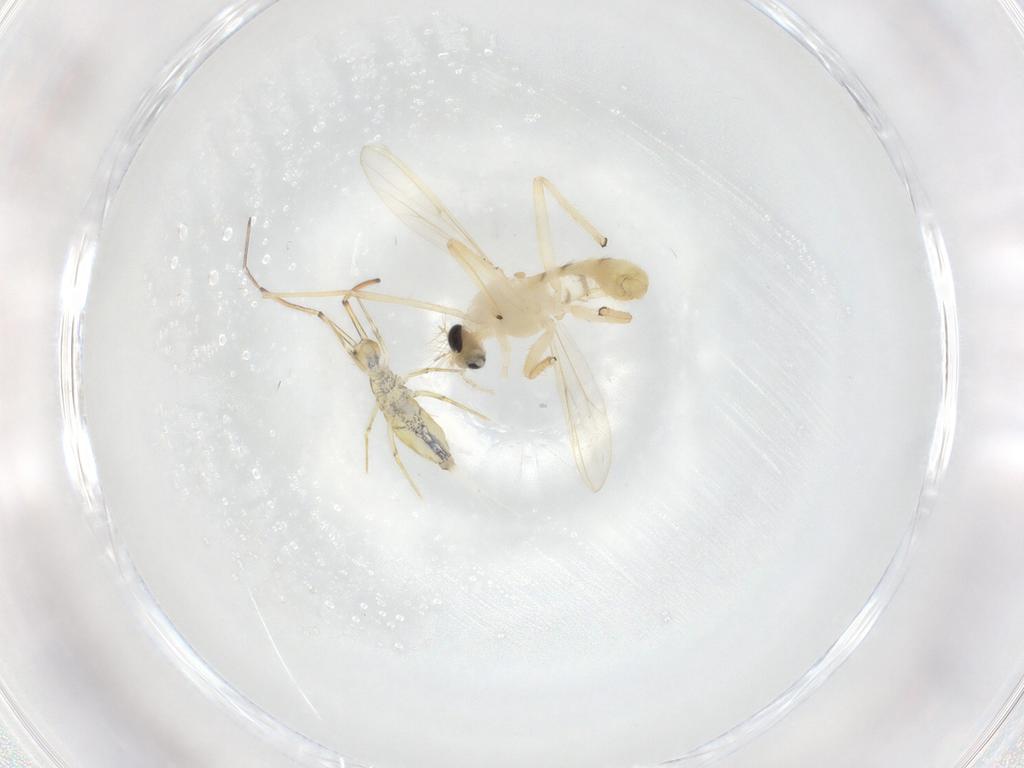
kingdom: Animalia
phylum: Arthropoda
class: Insecta
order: Diptera
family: Chironomidae
